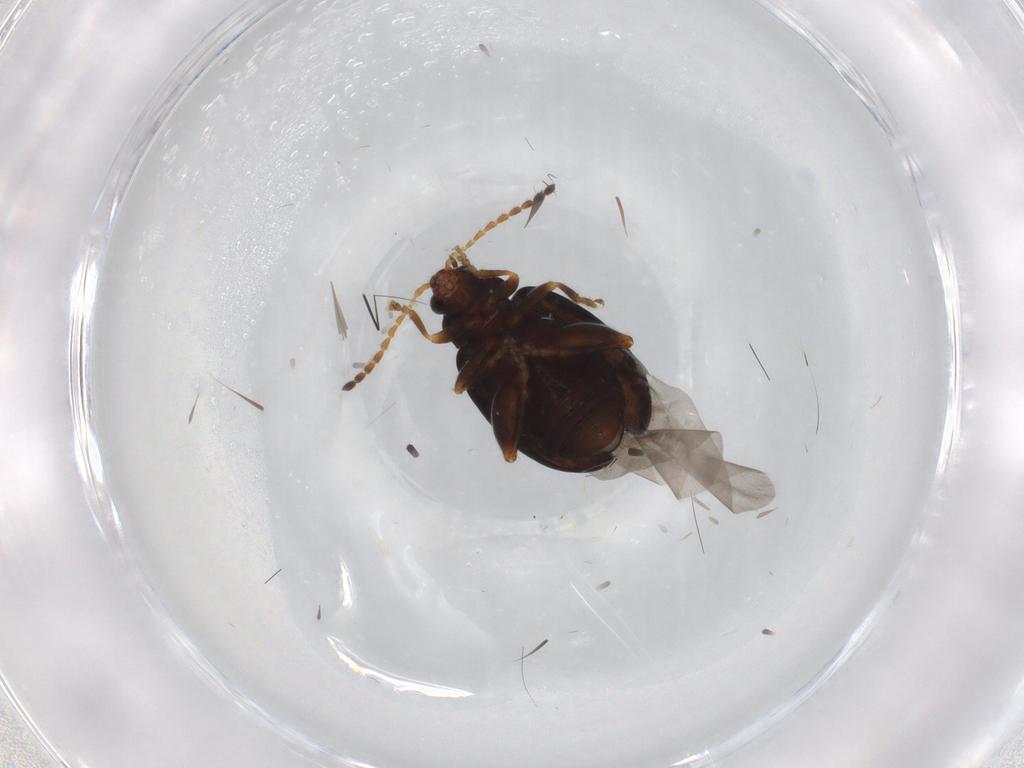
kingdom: Animalia
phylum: Arthropoda
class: Insecta
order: Coleoptera
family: Chrysomelidae
